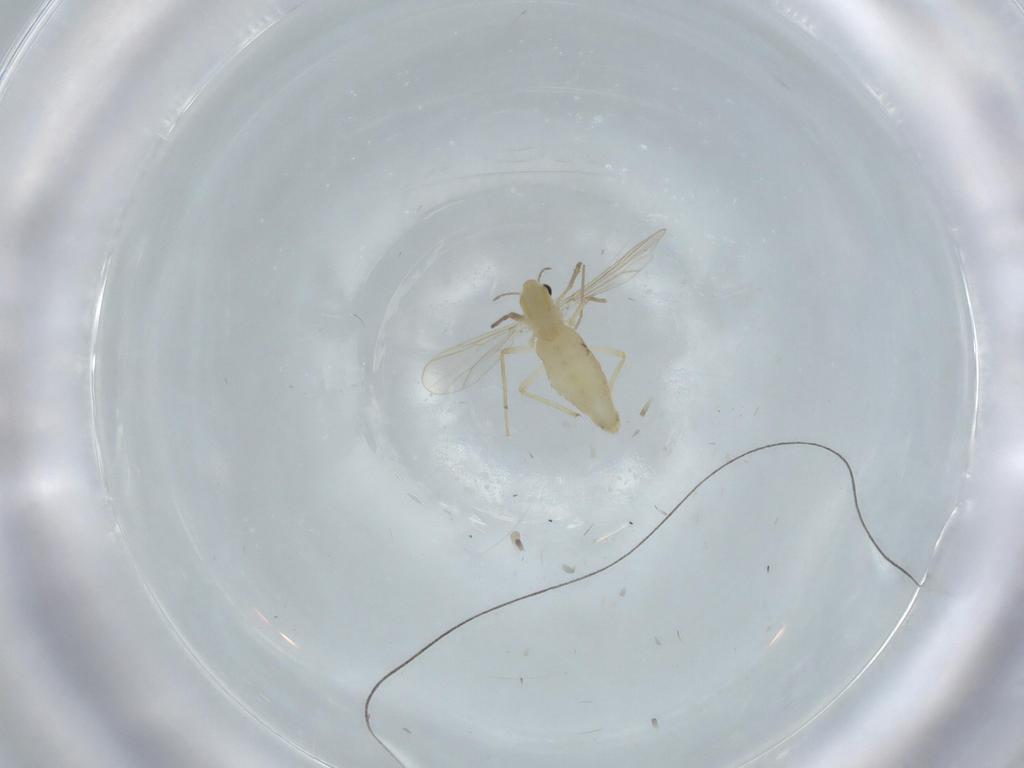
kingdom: Animalia
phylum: Arthropoda
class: Insecta
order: Diptera
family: Chironomidae
